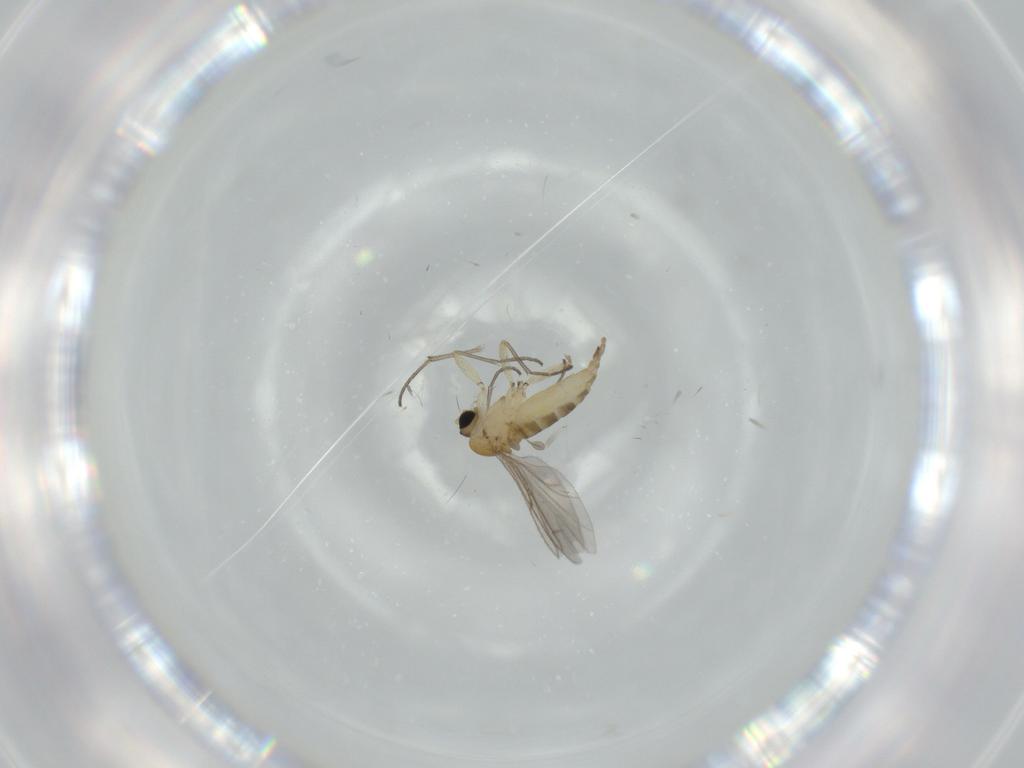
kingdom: Animalia
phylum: Arthropoda
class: Insecta
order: Diptera
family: Sciaridae
